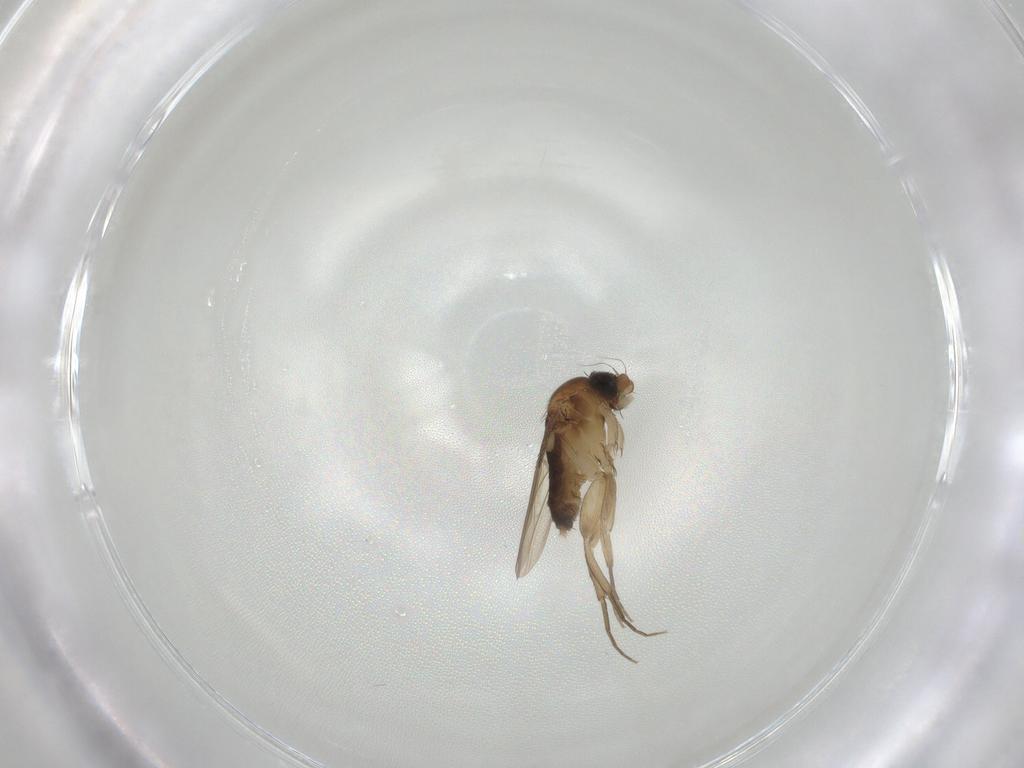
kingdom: Animalia
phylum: Arthropoda
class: Insecta
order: Diptera
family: Phoridae
